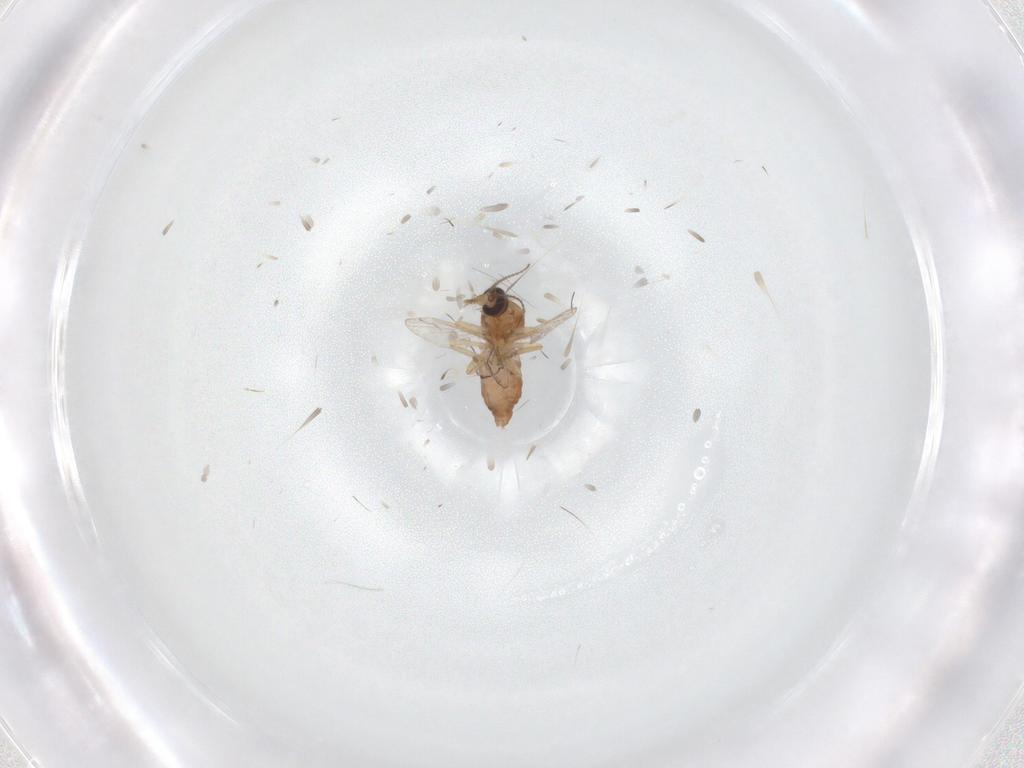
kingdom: Animalia
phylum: Arthropoda
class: Insecta
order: Diptera
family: Ceratopogonidae
